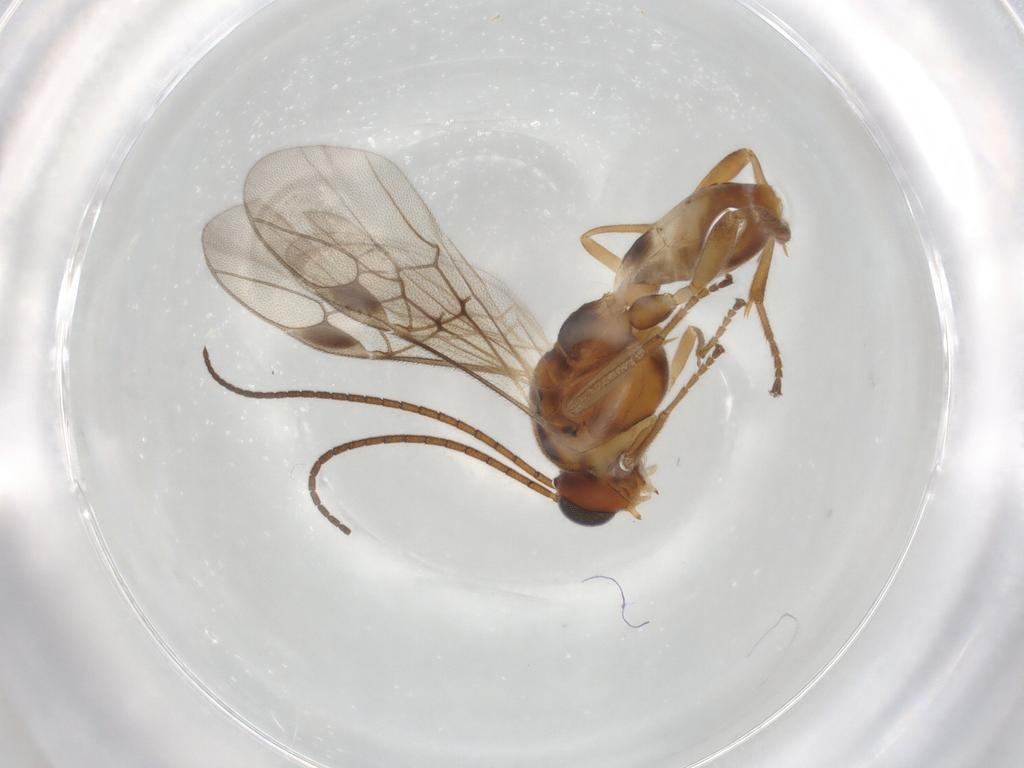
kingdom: Animalia
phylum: Arthropoda
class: Insecta
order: Hymenoptera
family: Braconidae
